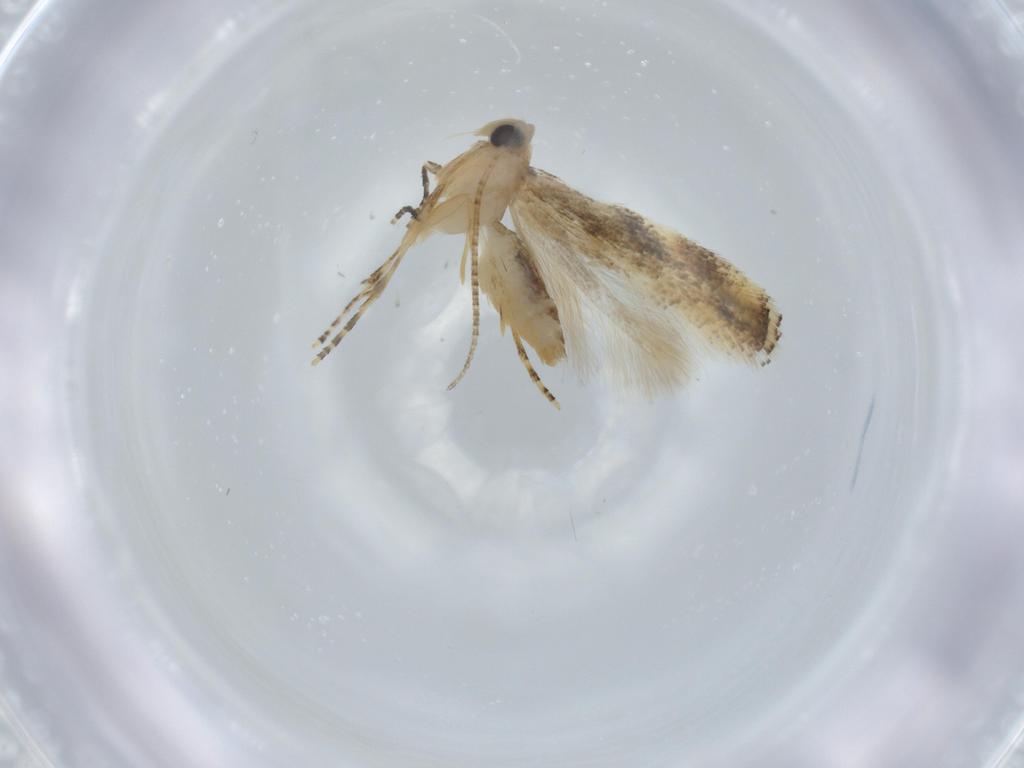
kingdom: Animalia
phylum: Arthropoda
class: Insecta
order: Lepidoptera
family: Bucculatricidae
